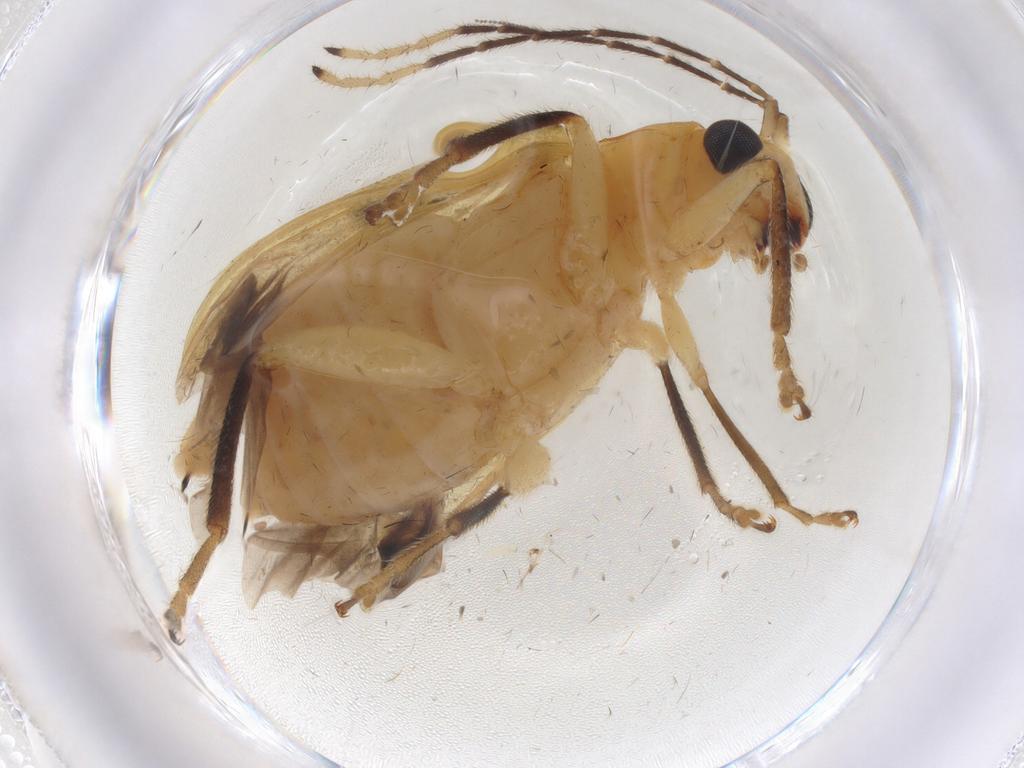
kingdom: Animalia
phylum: Arthropoda
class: Insecta
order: Coleoptera
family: Chrysomelidae
